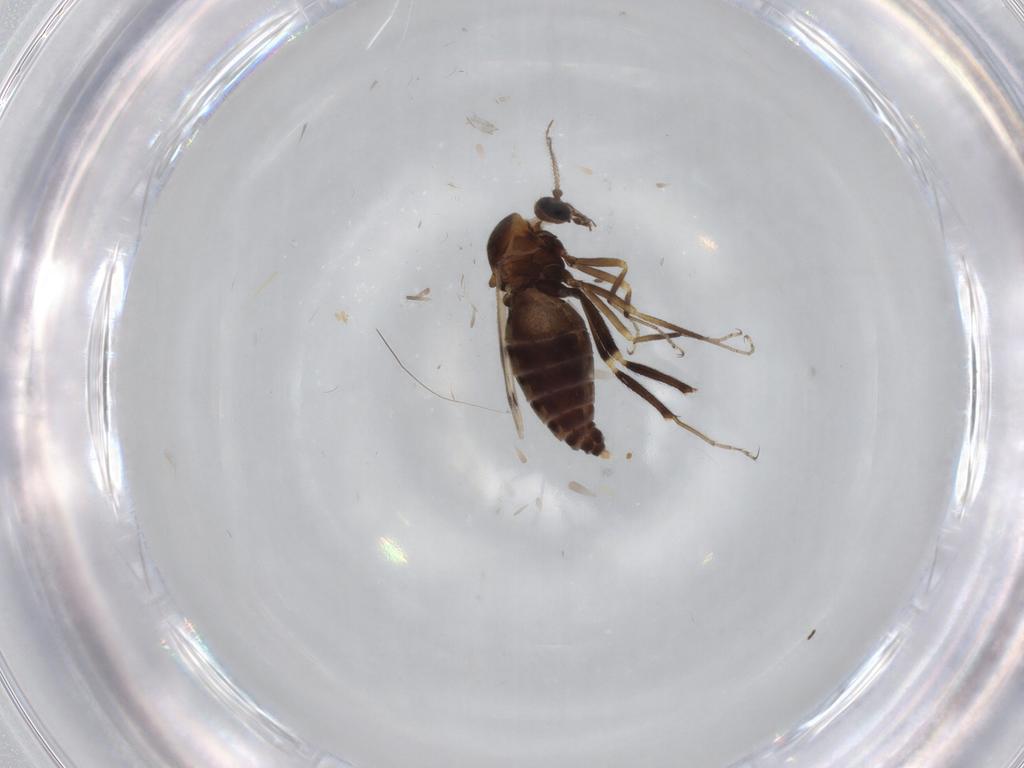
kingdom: Animalia
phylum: Arthropoda
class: Insecta
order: Diptera
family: Ceratopogonidae
